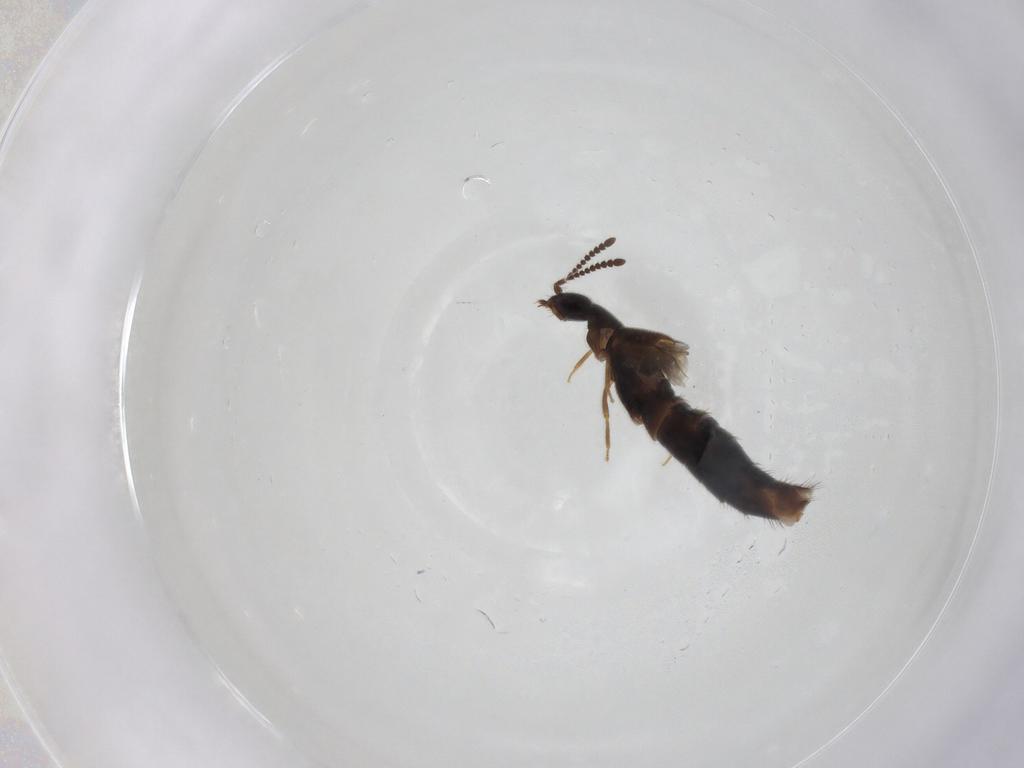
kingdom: Animalia
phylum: Arthropoda
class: Insecta
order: Coleoptera
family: Staphylinidae
